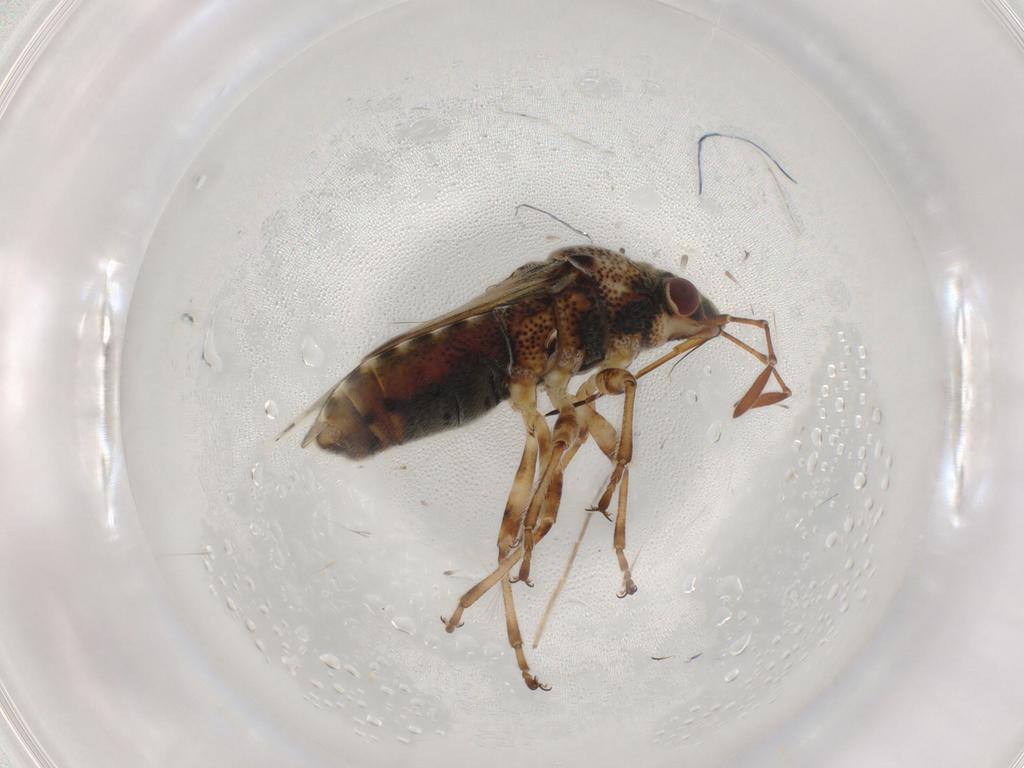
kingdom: Animalia
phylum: Arthropoda
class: Insecta
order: Hemiptera
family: Lygaeidae
